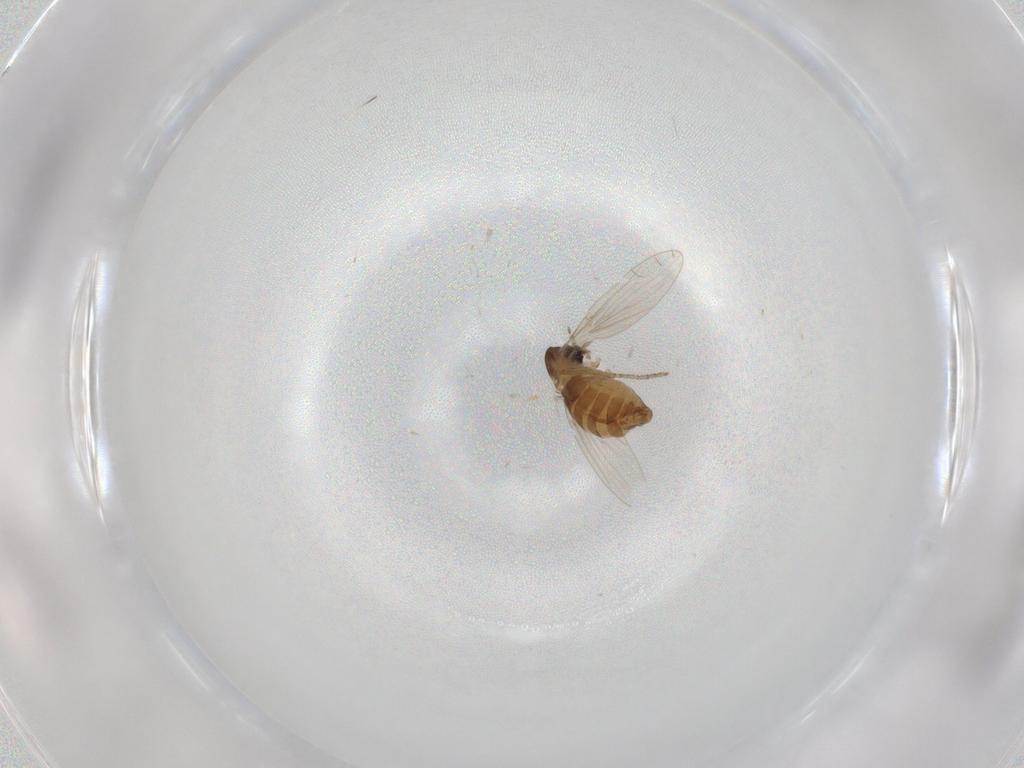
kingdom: Animalia
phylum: Arthropoda
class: Insecta
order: Diptera
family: Psychodidae
